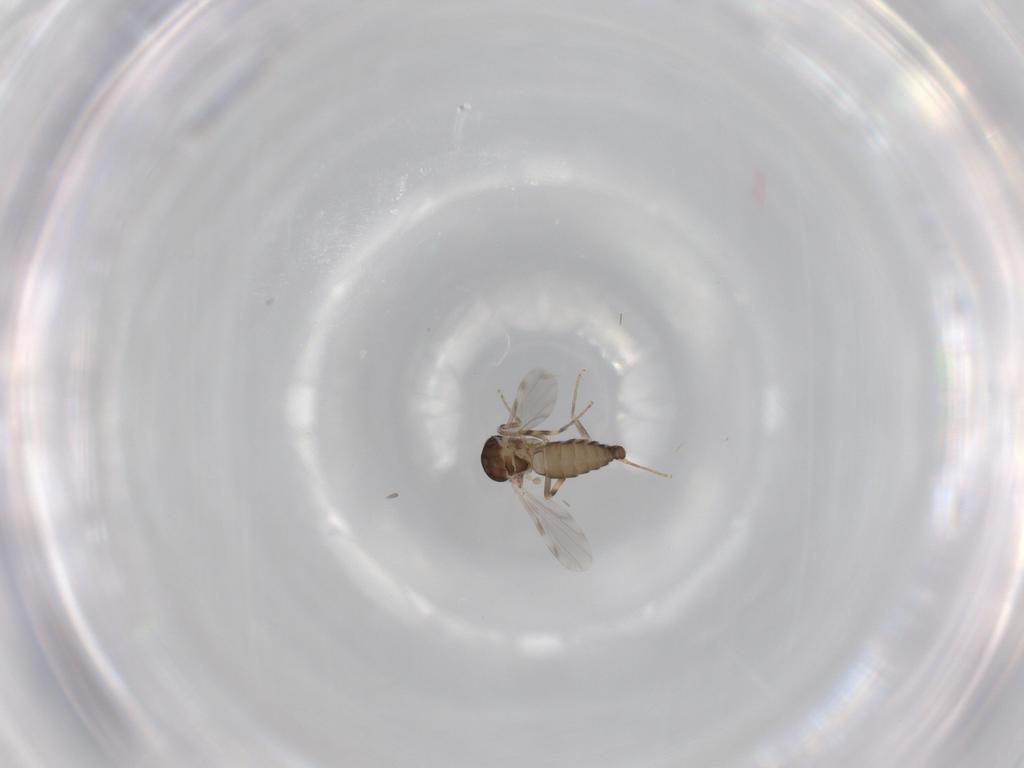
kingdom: Animalia
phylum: Arthropoda
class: Insecta
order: Diptera
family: Ceratopogonidae
